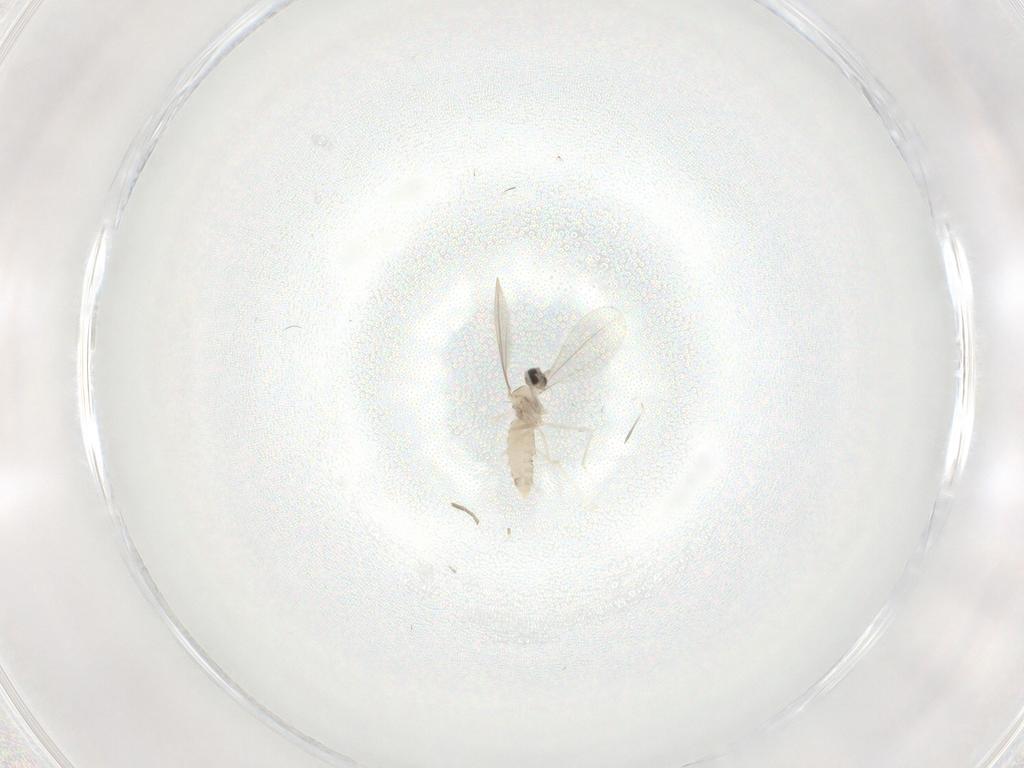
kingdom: Animalia
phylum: Arthropoda
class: Insecta
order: Diptera
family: Cecidomyiidae
